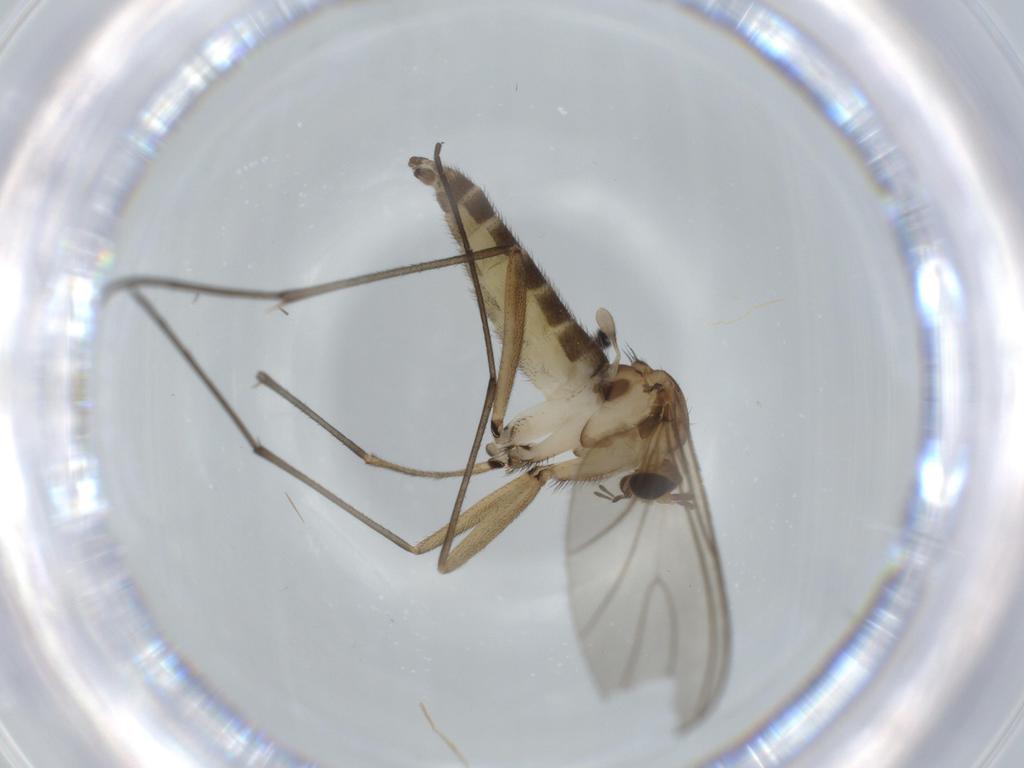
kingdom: Animalia
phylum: Arthropoda
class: Insecta
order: Diptera
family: Sciaridae
